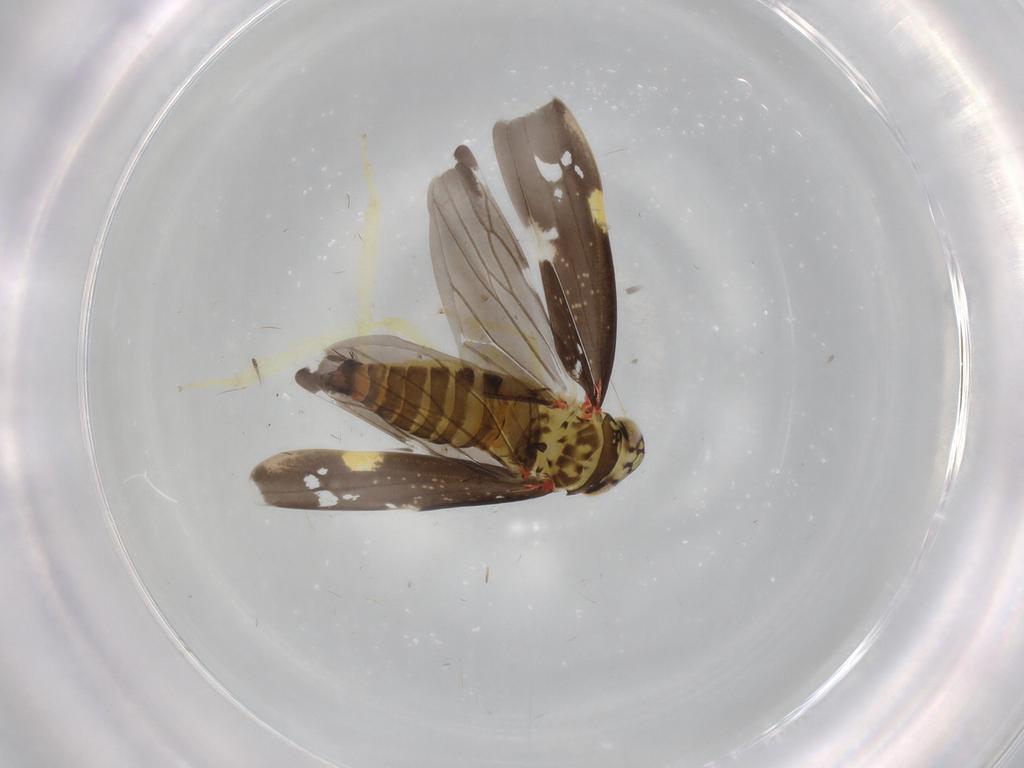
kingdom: Animalia
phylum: Arthropoda
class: Insecta
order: Hemiptera
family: Cicadellidae
